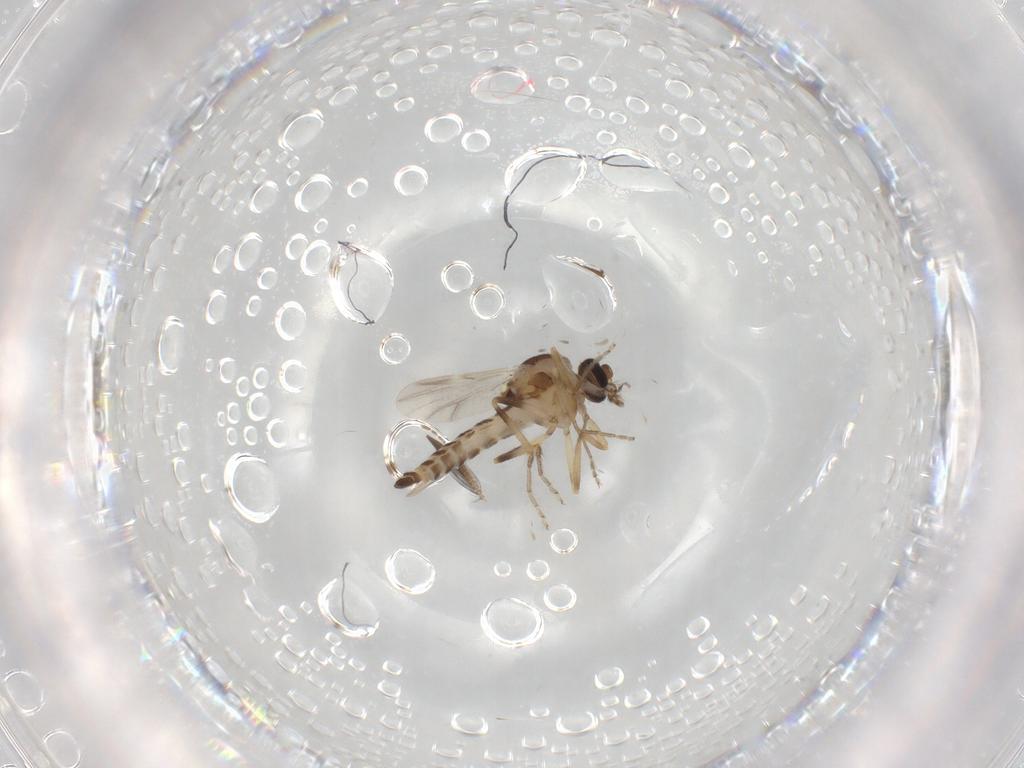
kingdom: Animalia
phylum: Arthropoda
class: Insecta
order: Diptera
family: Ceratopogonidae
